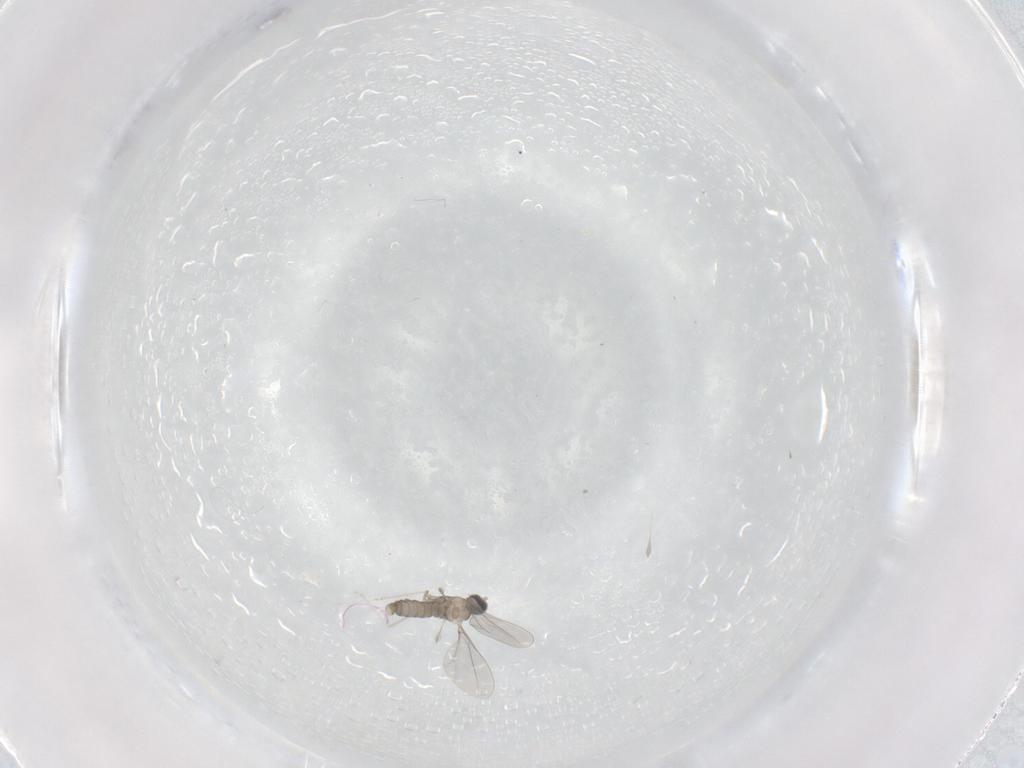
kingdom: Animalia
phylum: Arthropoda
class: Insecta
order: Diptera
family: Cecidomyiidae
